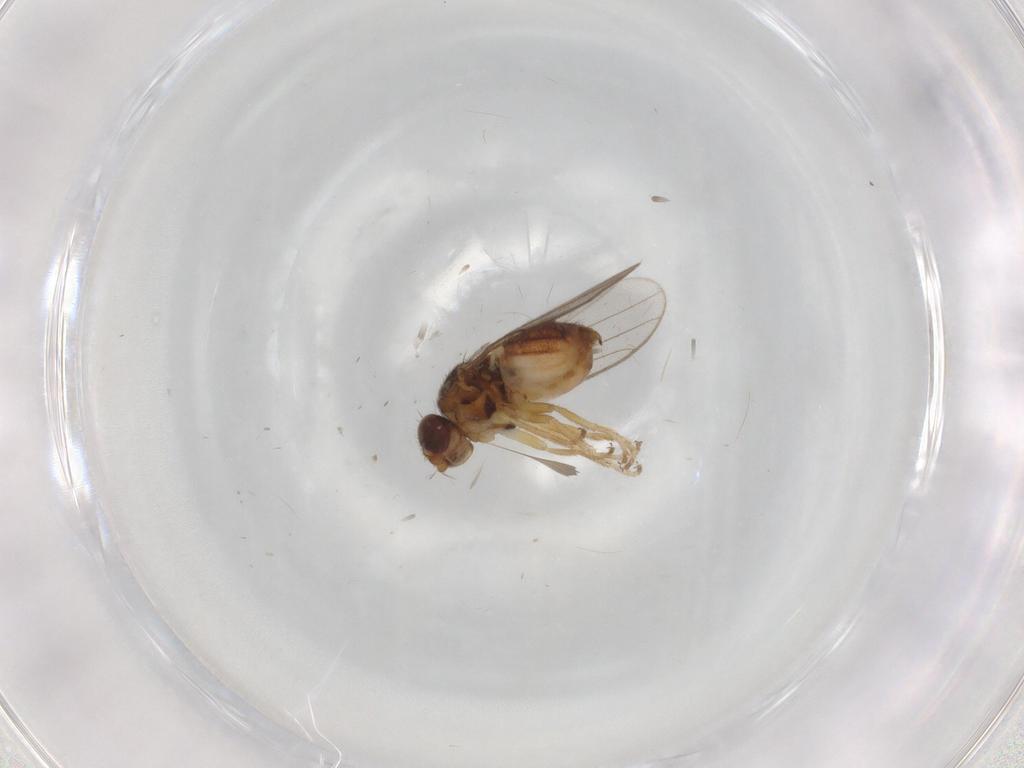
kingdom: Animalia
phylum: Arthropoda
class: Insecta
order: Diptera
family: Chloropidae
